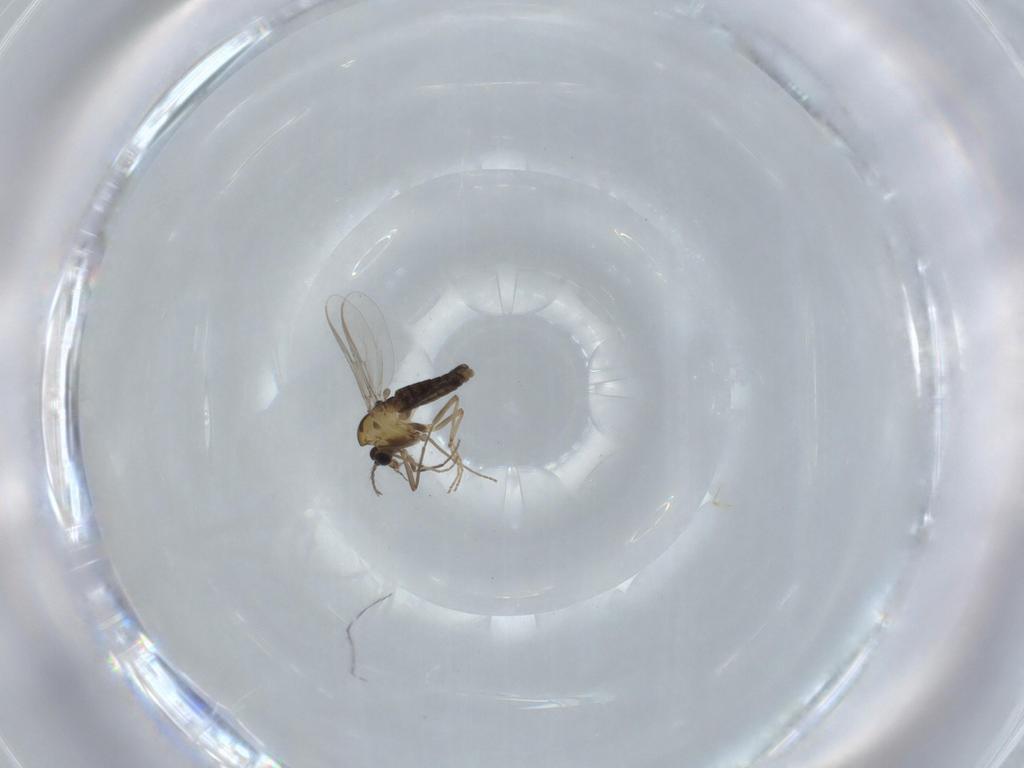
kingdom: Animalia
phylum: Arthropoda
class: Insecta
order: Diptera
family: Chironomidae
